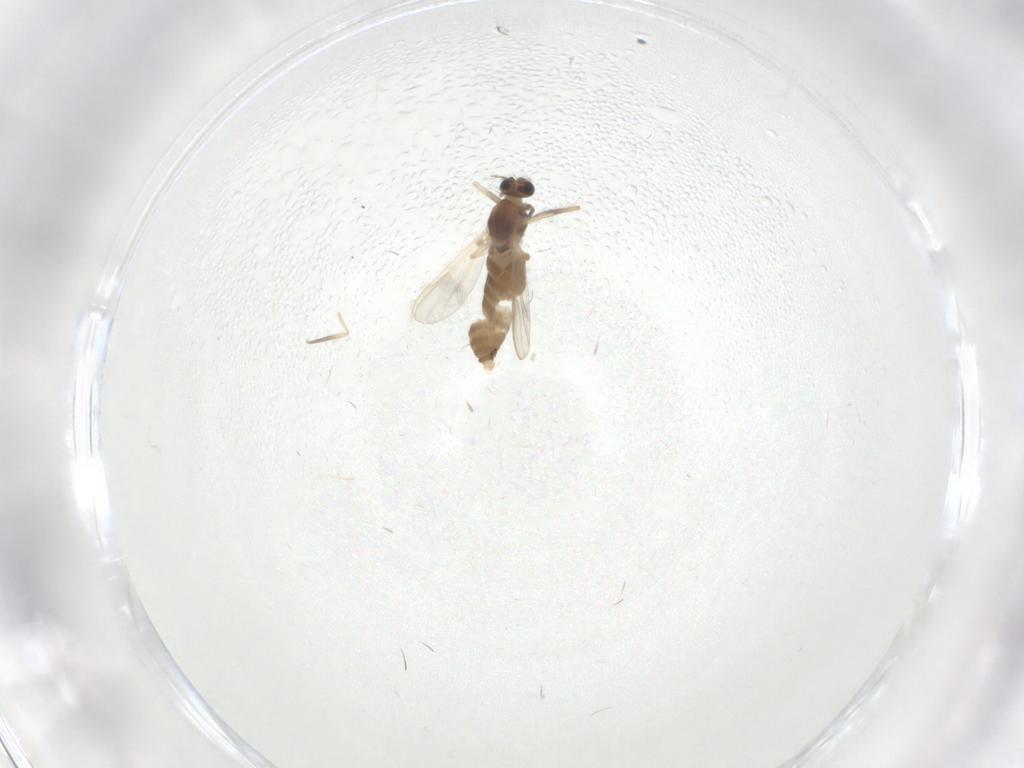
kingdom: Animalia
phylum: Arthropoda
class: Insecta
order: Diptera
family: Chironomidae
